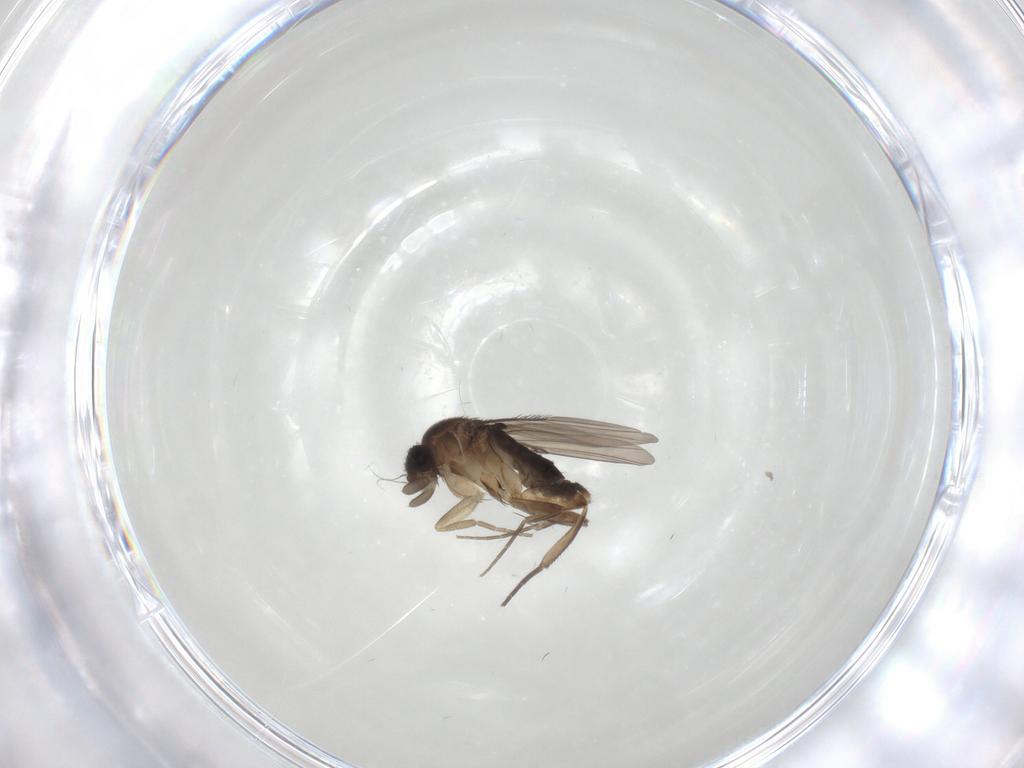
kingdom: Animalia
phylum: Arthropoda
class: Insecta
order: Diptera
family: Phoridae
